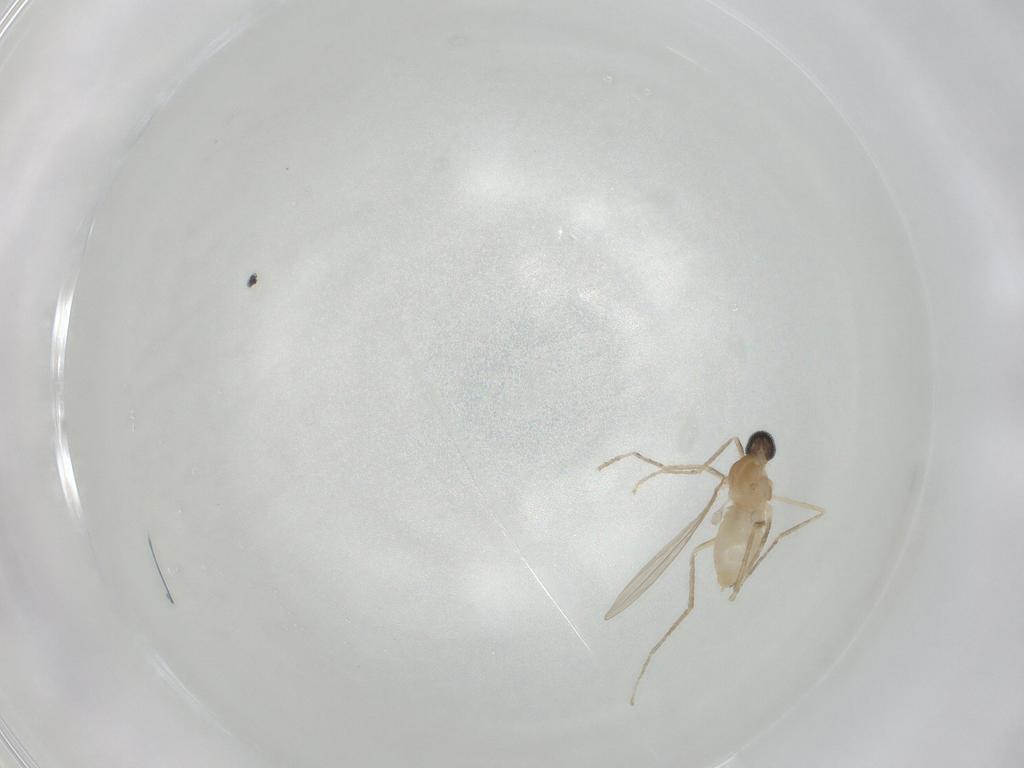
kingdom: Animalia
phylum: Arthropoda
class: Insecta
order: Diptera
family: Cecidomyiidae
